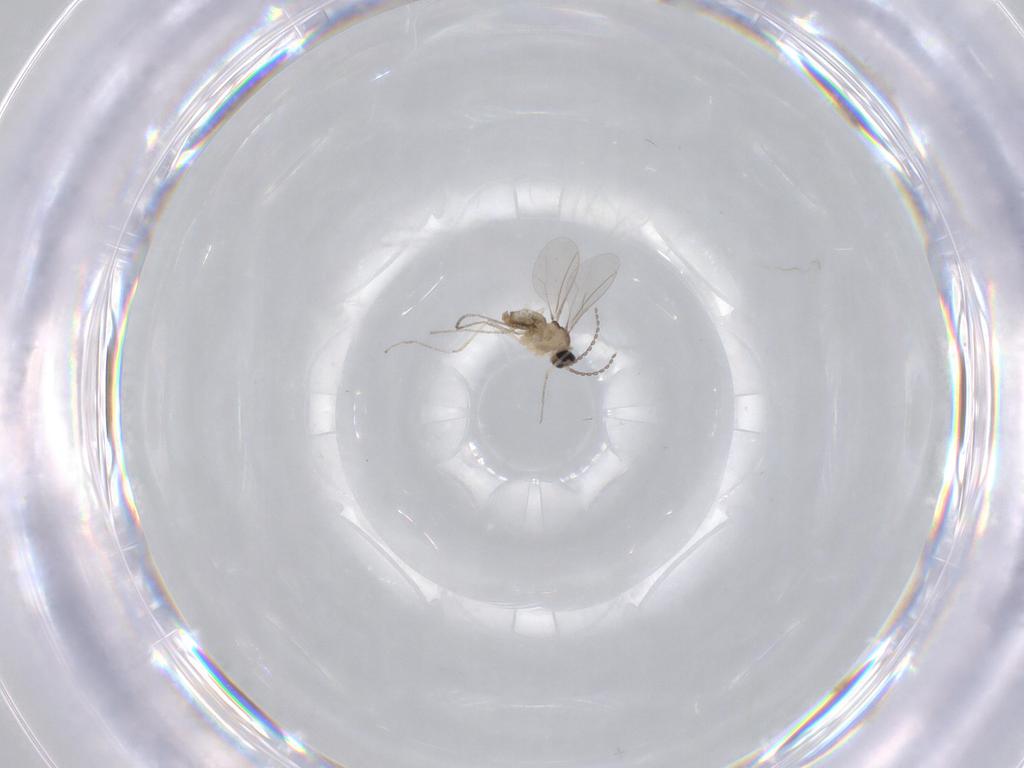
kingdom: Animalia
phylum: Arthropoda
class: Insecta
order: Diptera
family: Cecidomyiidae
